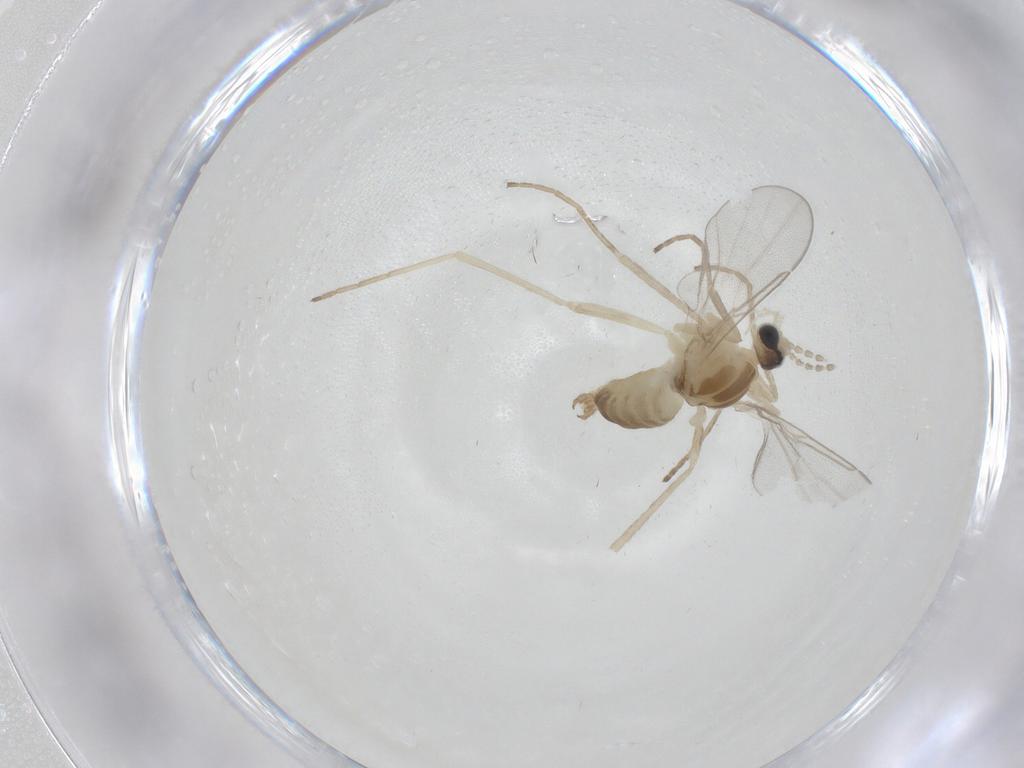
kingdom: Animalia
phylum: Arthropoda
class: Insecta
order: Diptera
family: Cecidomyiidae
